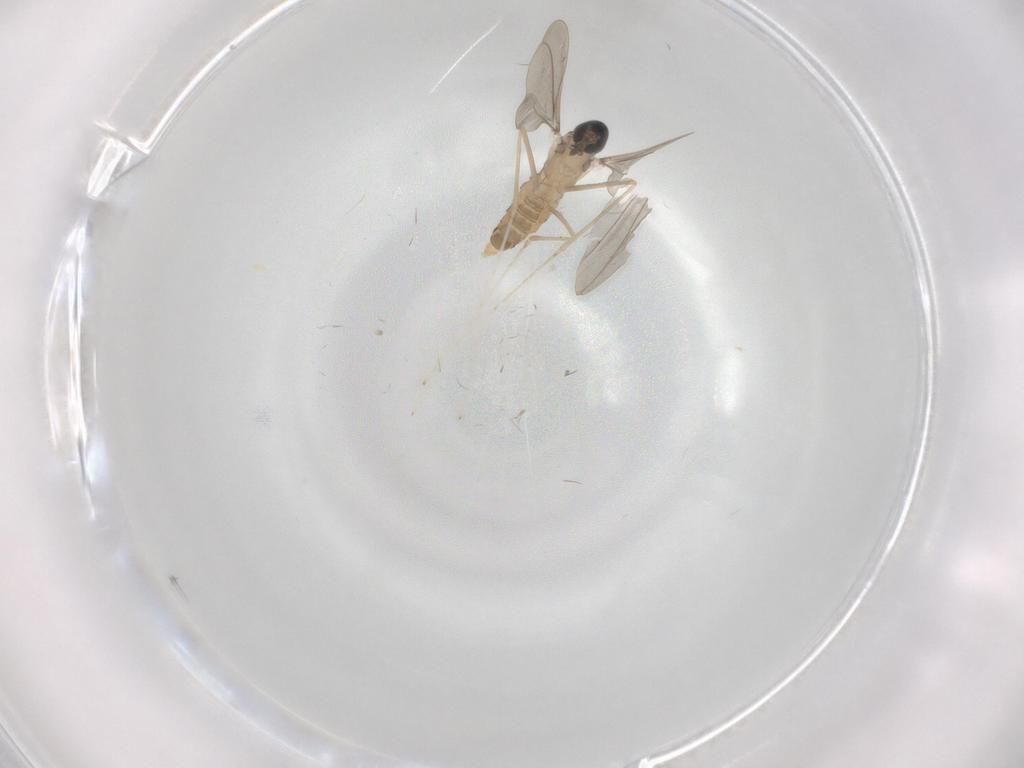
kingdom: Animalia
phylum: Arthropoda
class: Insecta
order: Diptera
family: Cecidomyiidae
